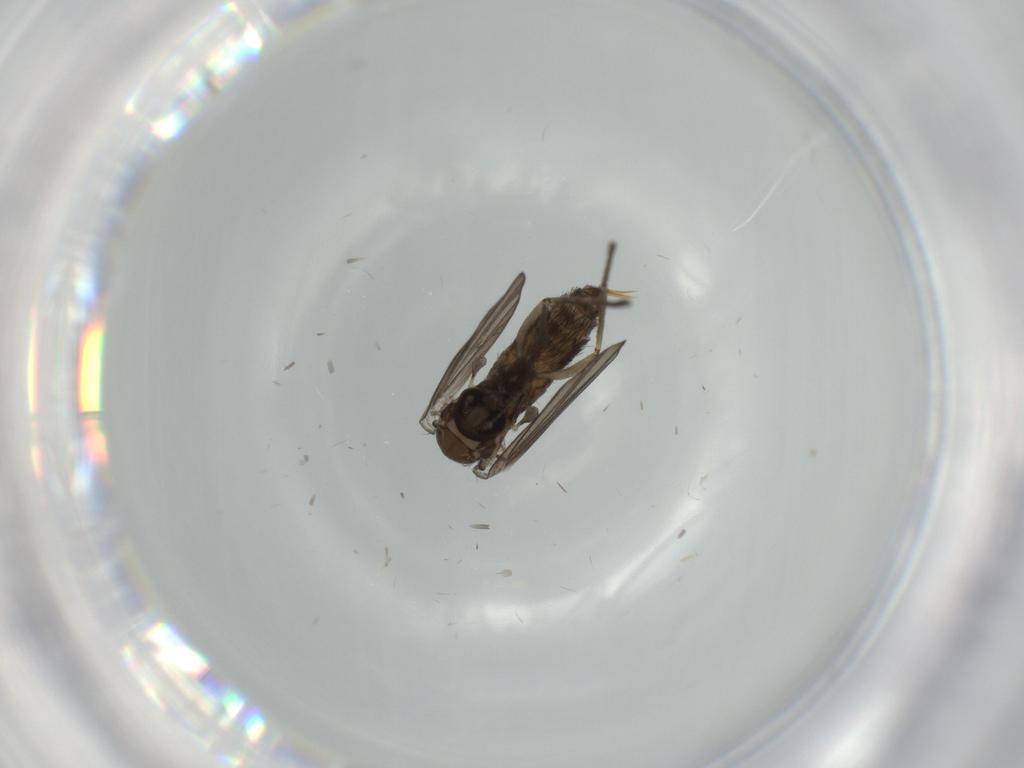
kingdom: Animalia
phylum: Arthropoda
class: Insecta
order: Diptera
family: Psychodidae
